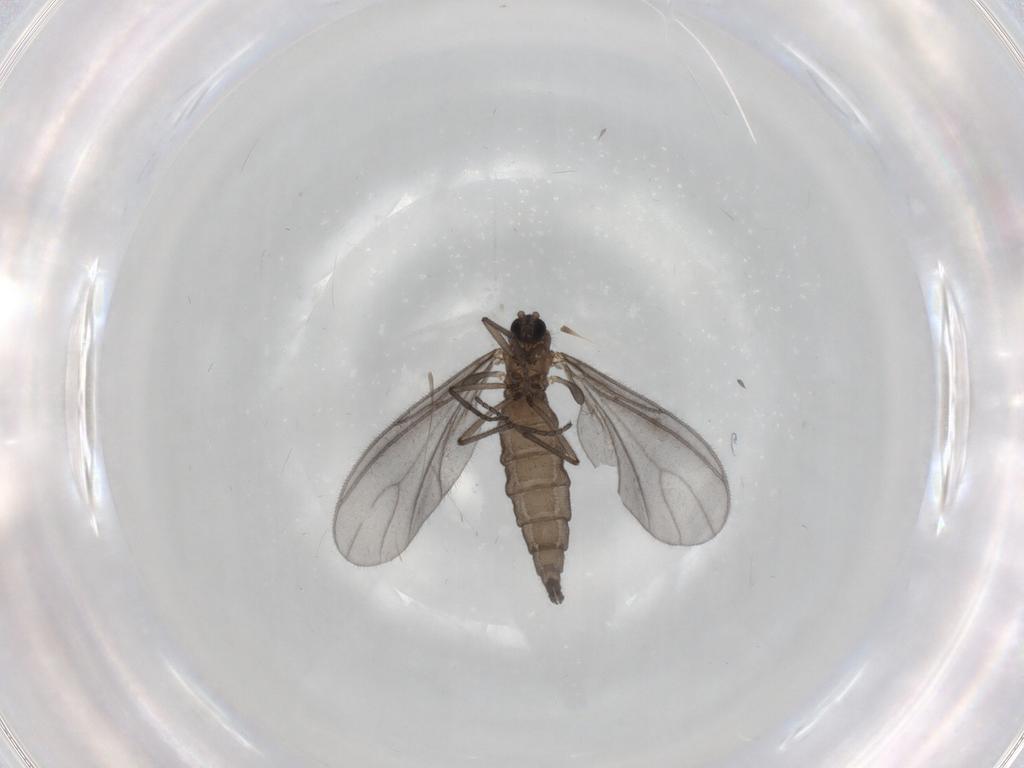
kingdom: Animalia
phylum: Arthropoda
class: Insecta
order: Diptera
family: Sciaridae
